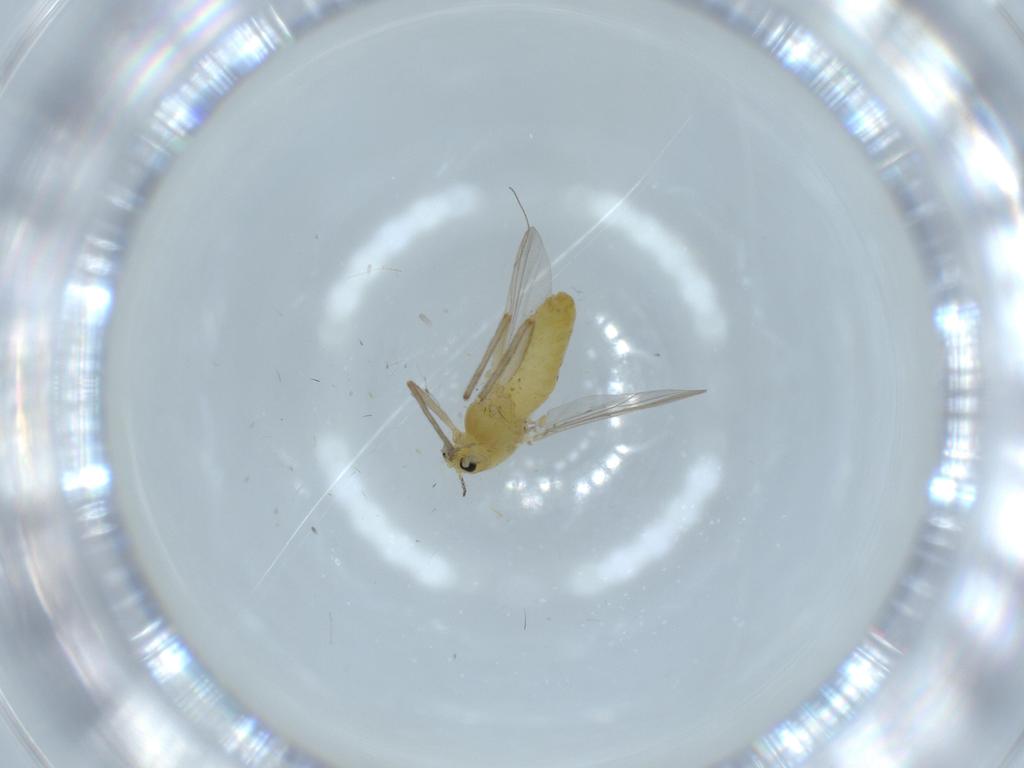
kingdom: Animalia
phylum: Arthropoda
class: Insecta
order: Diptera
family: Chironomidae
